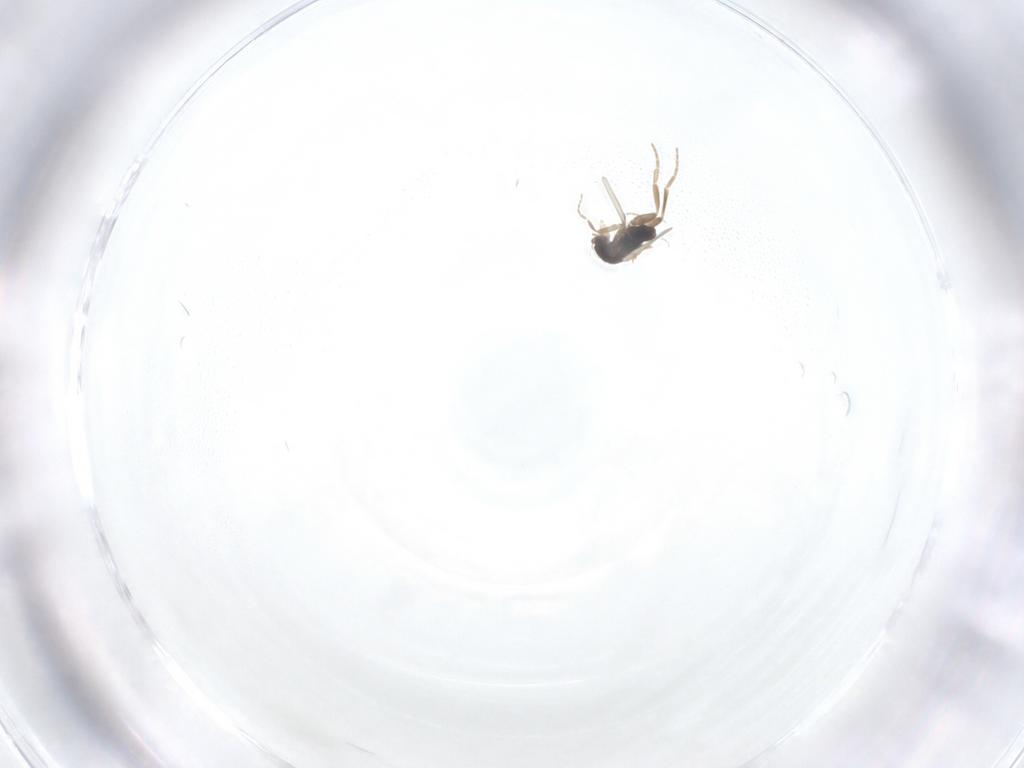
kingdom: Animalia
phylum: Arthropoda
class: Insecta
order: Diptera
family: Phoridae
